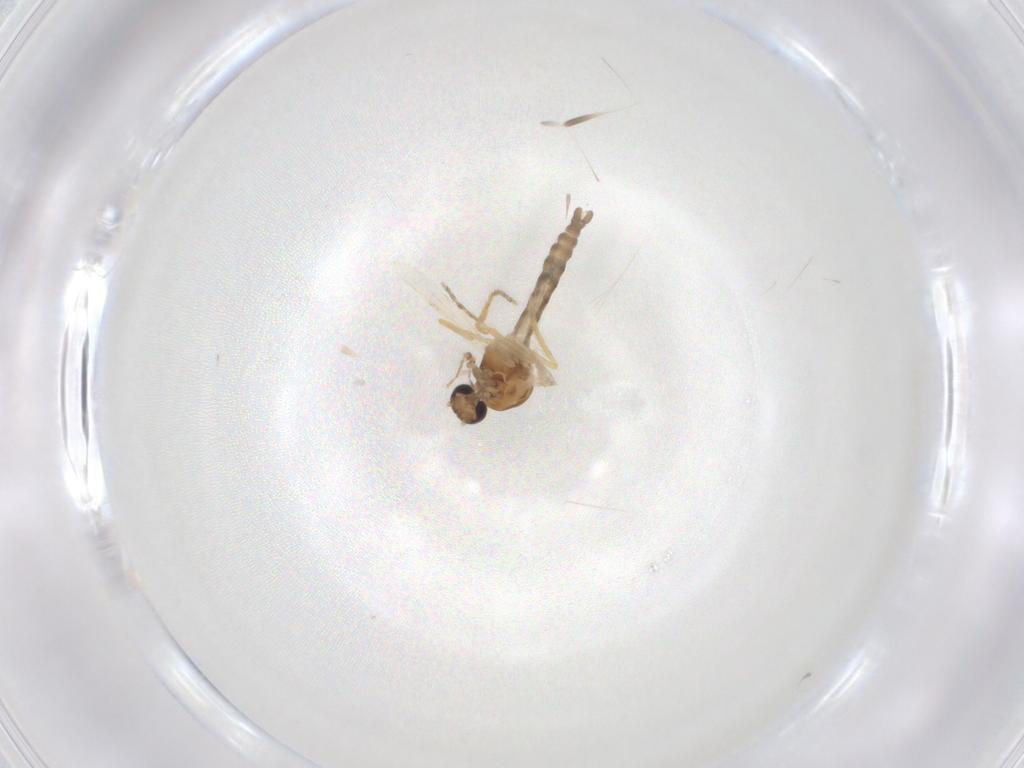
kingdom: Animalia
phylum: Arthropoda
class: Insecta
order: Diptera
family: Ceratopogonidae
